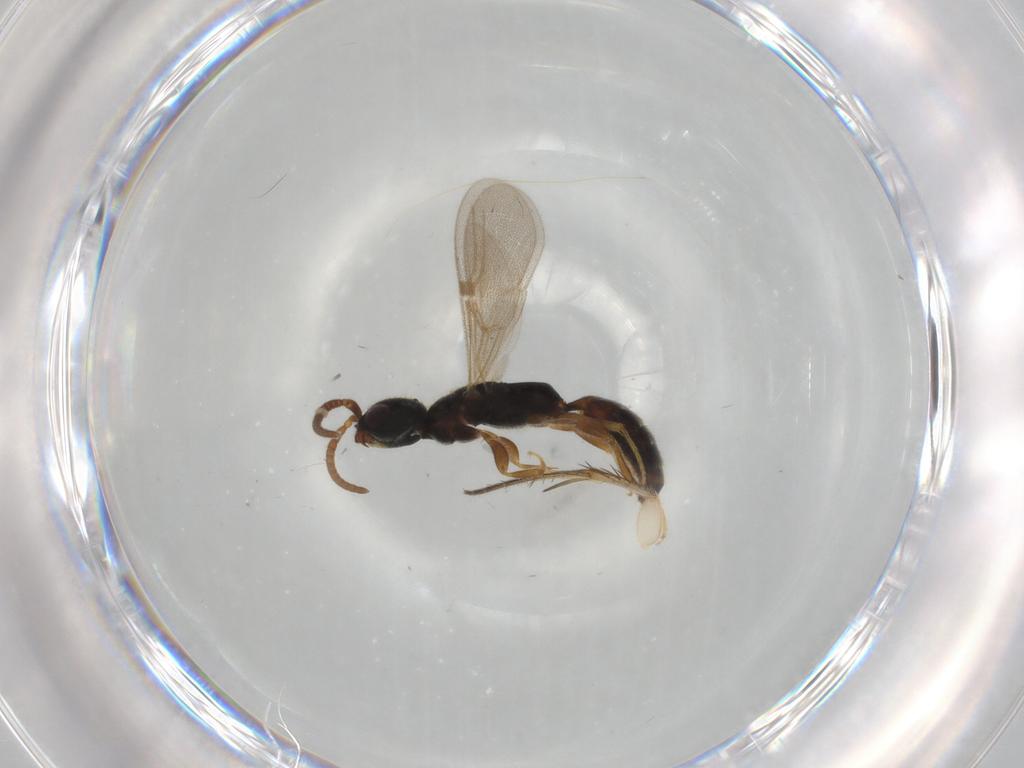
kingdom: Animalia
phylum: Arthropoda
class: Insecta
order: Hymenoptera
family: Bethylidae
